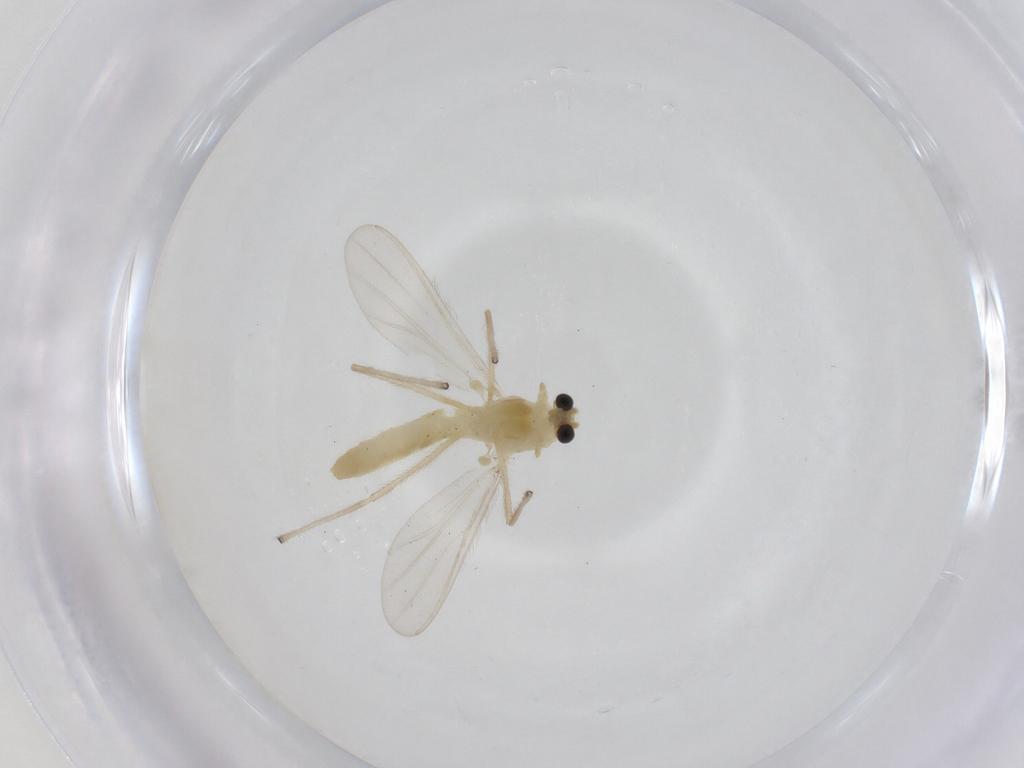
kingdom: Animalia
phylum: Arthropoda
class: Insecta
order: Diptera
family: Chironomidae
